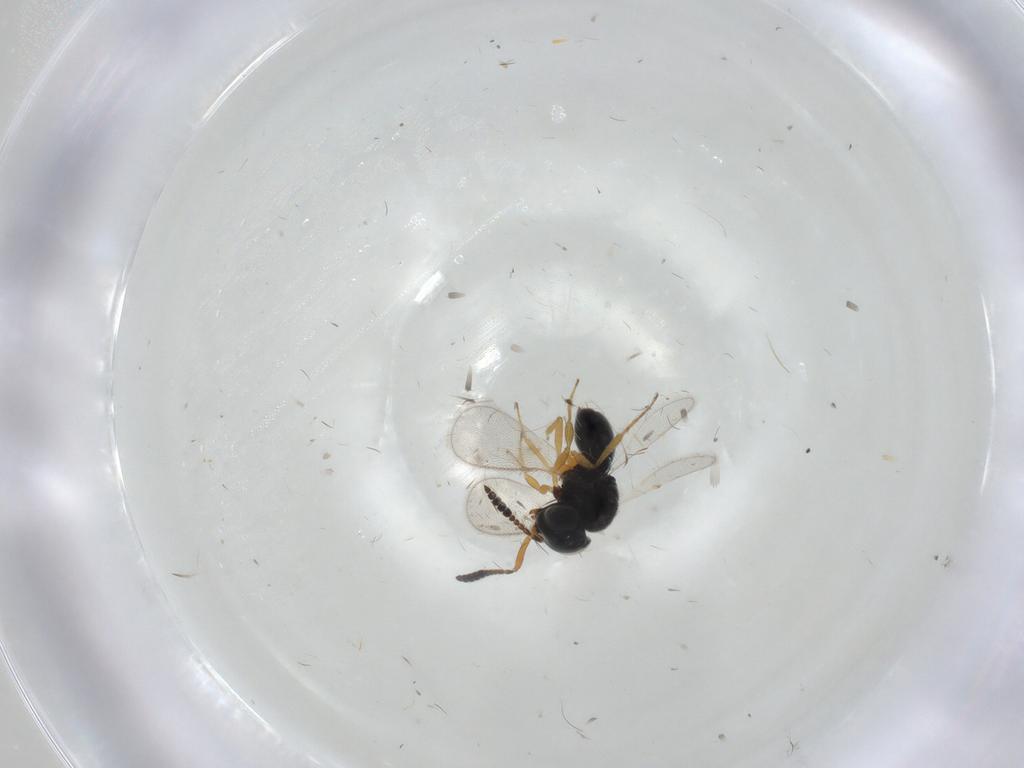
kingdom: Animalia
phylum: Arthropoda
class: Insecta
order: Hymenoptera
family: Scelionidae
